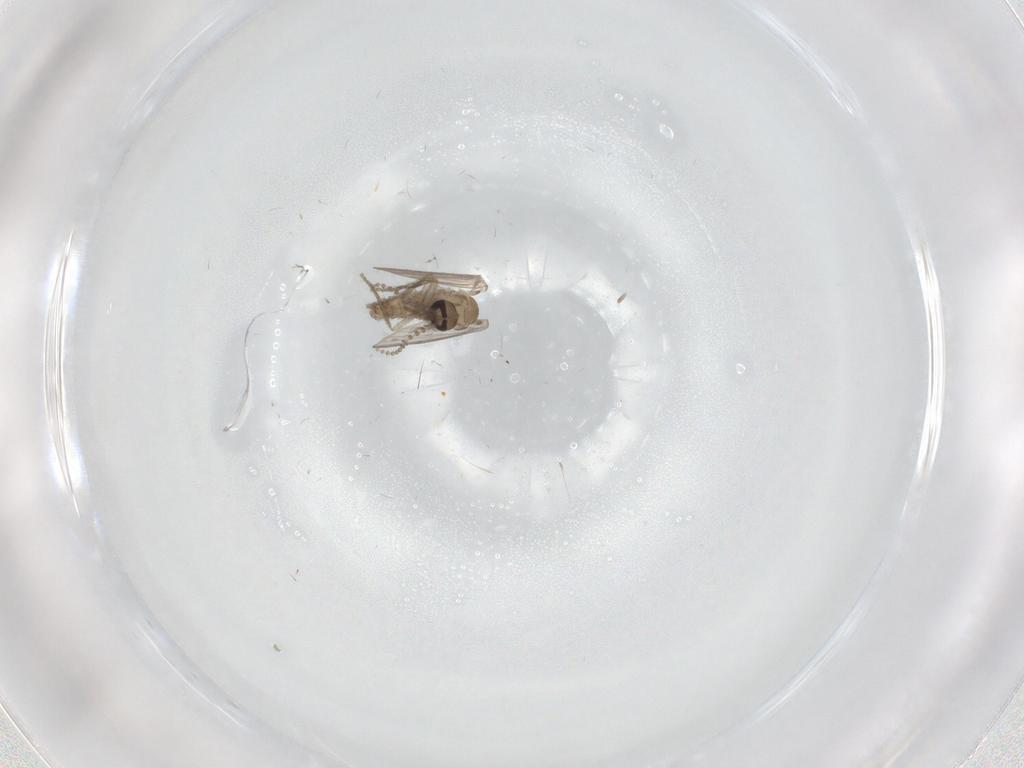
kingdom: Animalia
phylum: Arthropoda
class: Insecta
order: Diptera
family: Psychodidae
